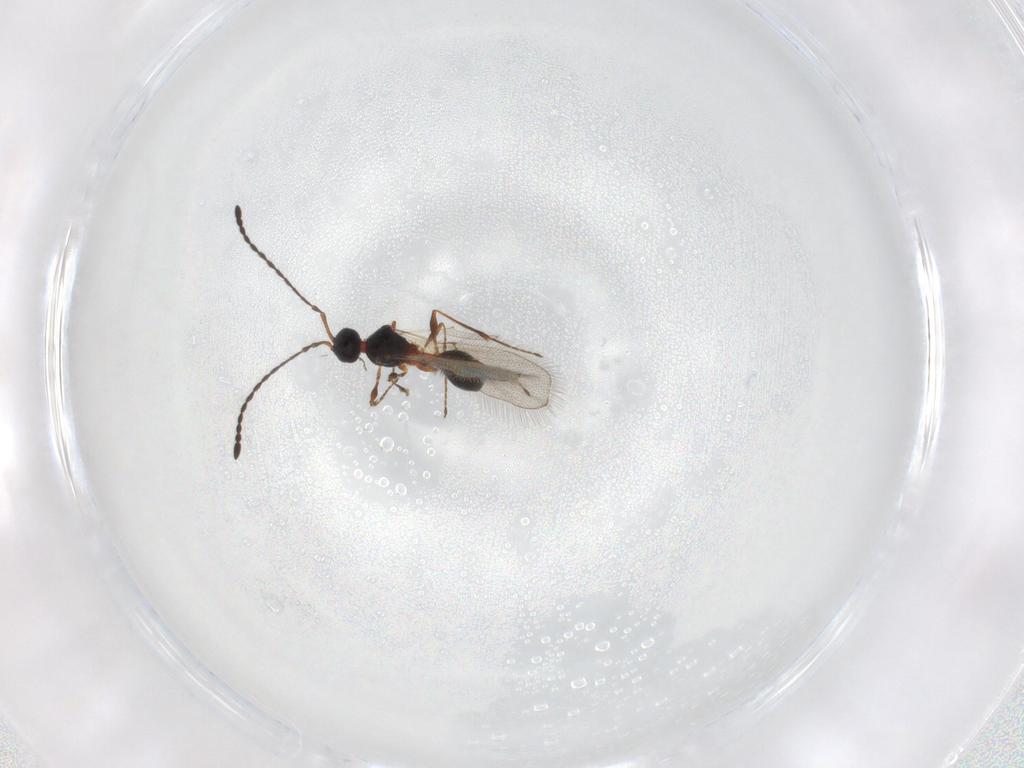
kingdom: Animalia
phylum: Arthropoda
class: Insecta
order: Hymenoptera
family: Diapriidae
